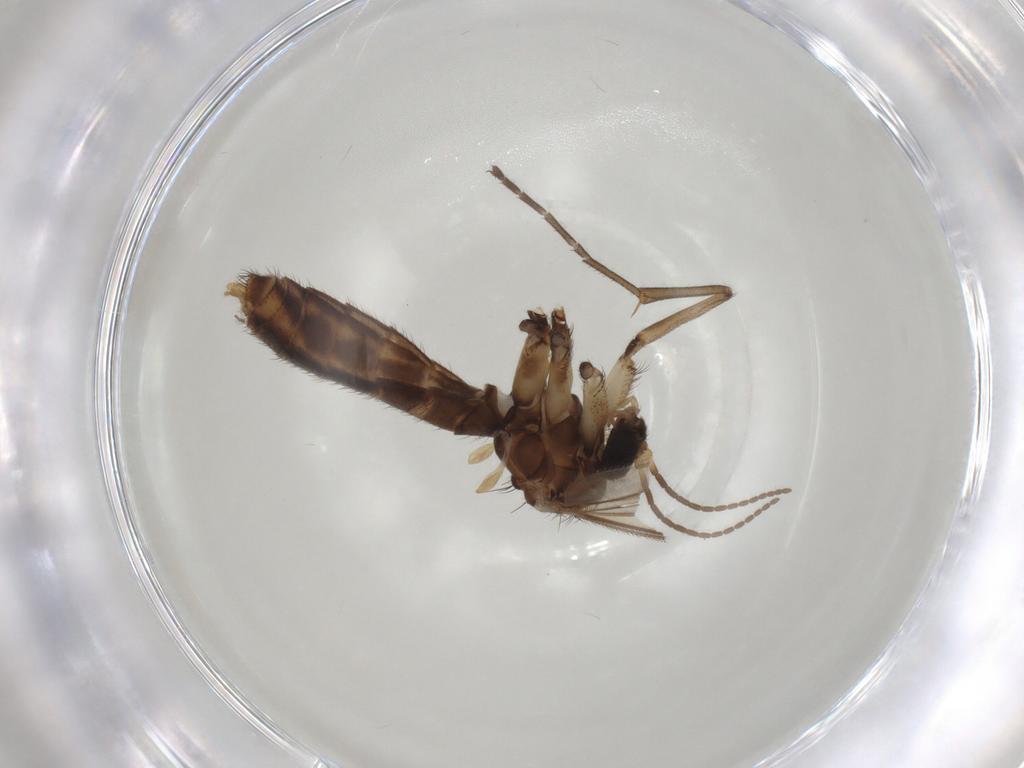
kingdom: Animalia
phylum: Arthropoda
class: Insecta
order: Diptera
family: Mycetophilidae
